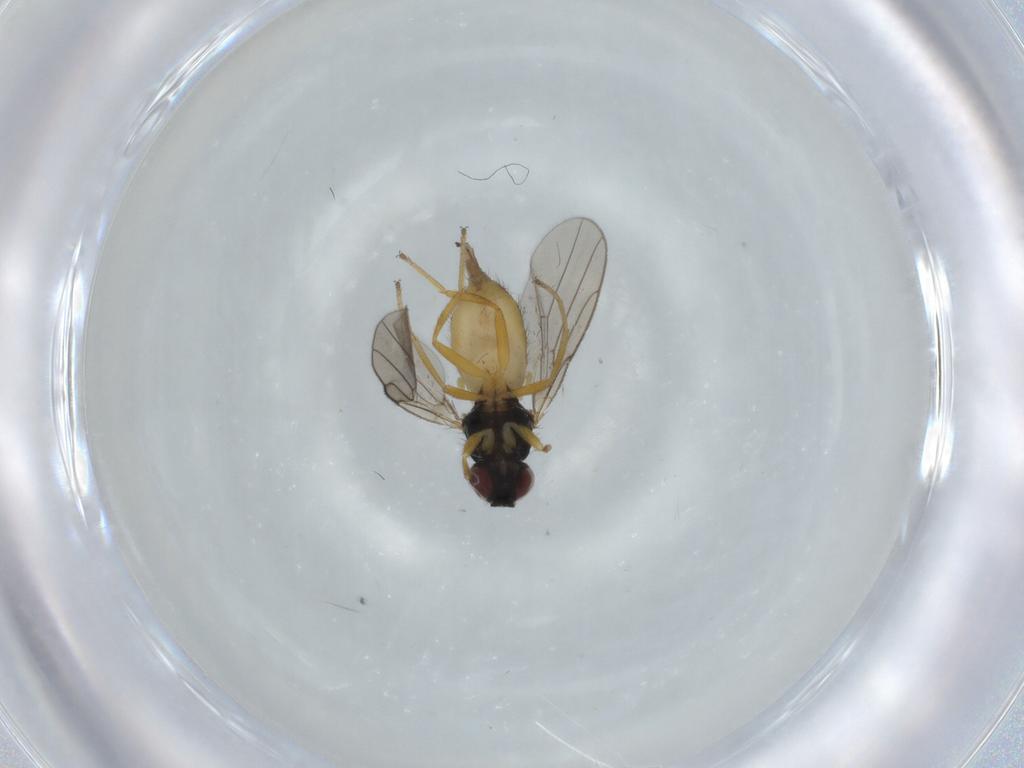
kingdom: Animalia
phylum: Arthropoda
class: Insecta
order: Diptera
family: Chloropidae
